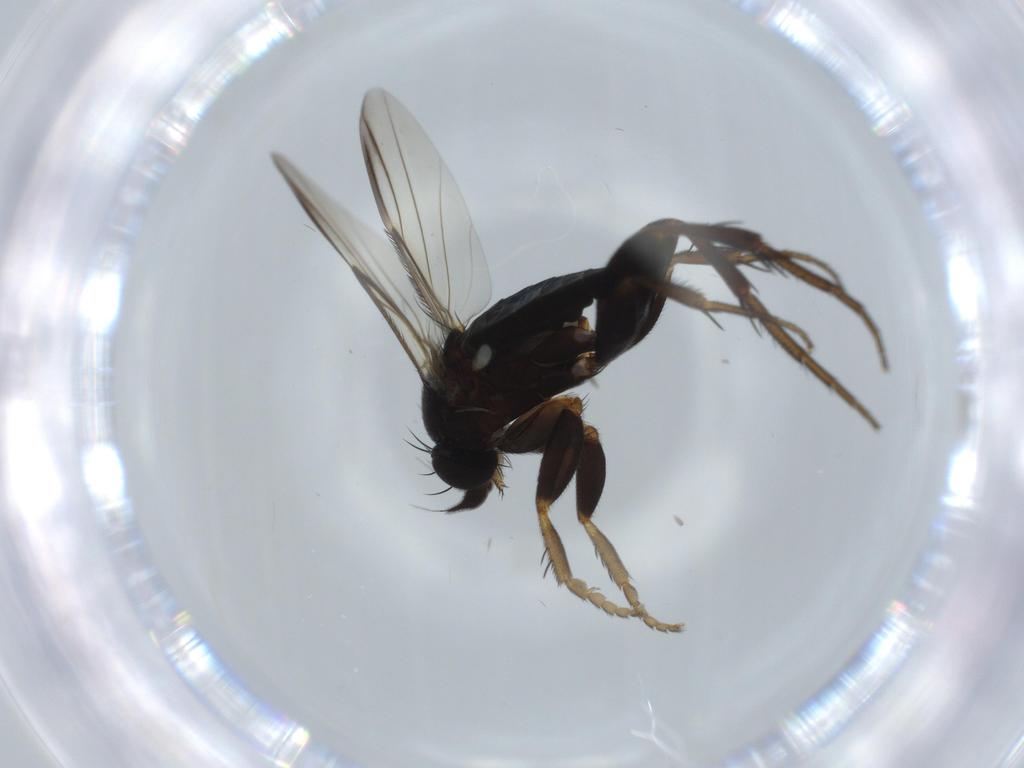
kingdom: Animalia
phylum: Arthropoda
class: Insecta
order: Diptera
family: Phoridae
